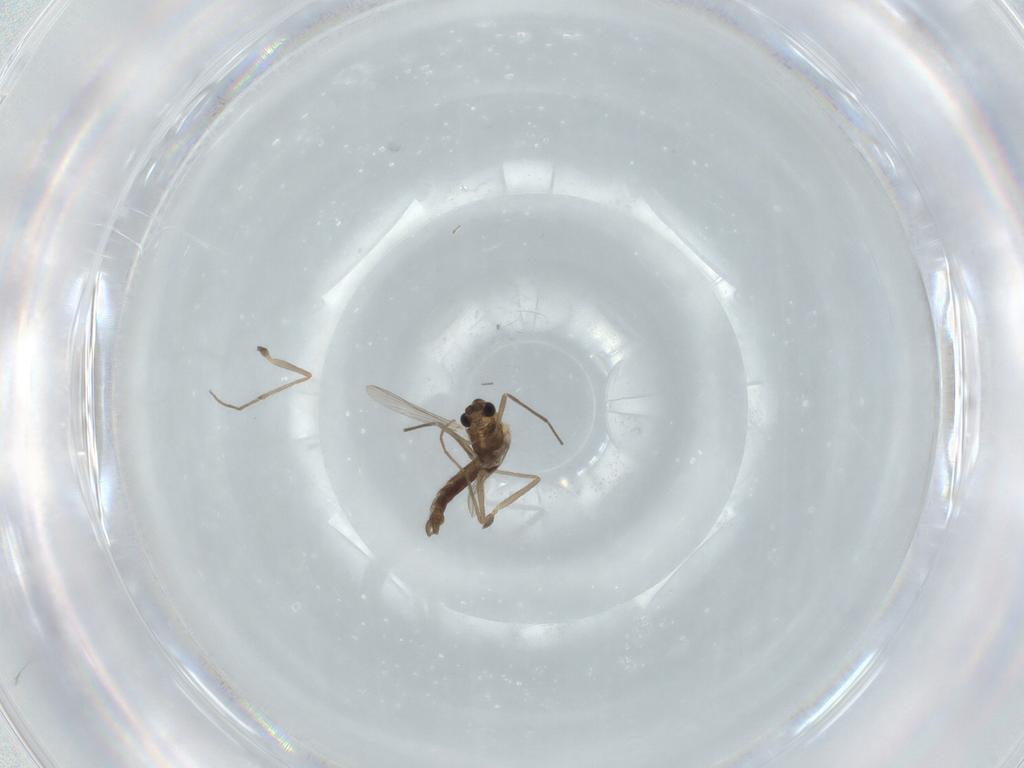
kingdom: Animalia
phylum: Arthropoda
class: Insecta
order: Diptera
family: Chironomidae
